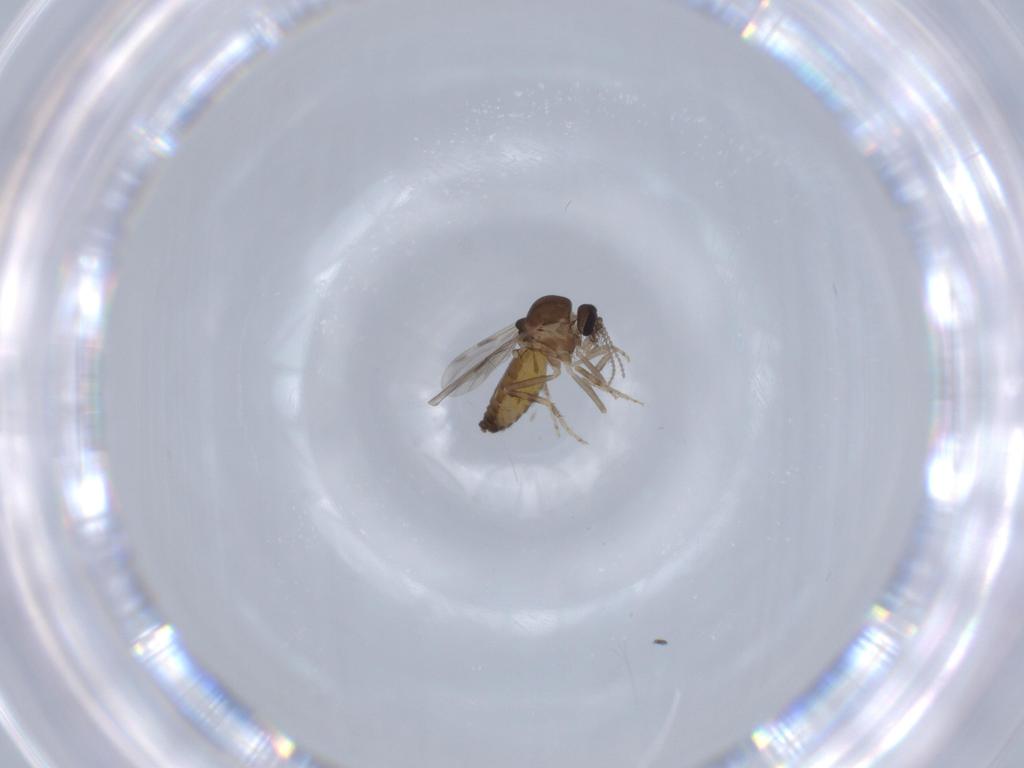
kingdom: Animalia
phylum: Arthropoda
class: Insecta
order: Diptera
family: Ceratopogonidae
